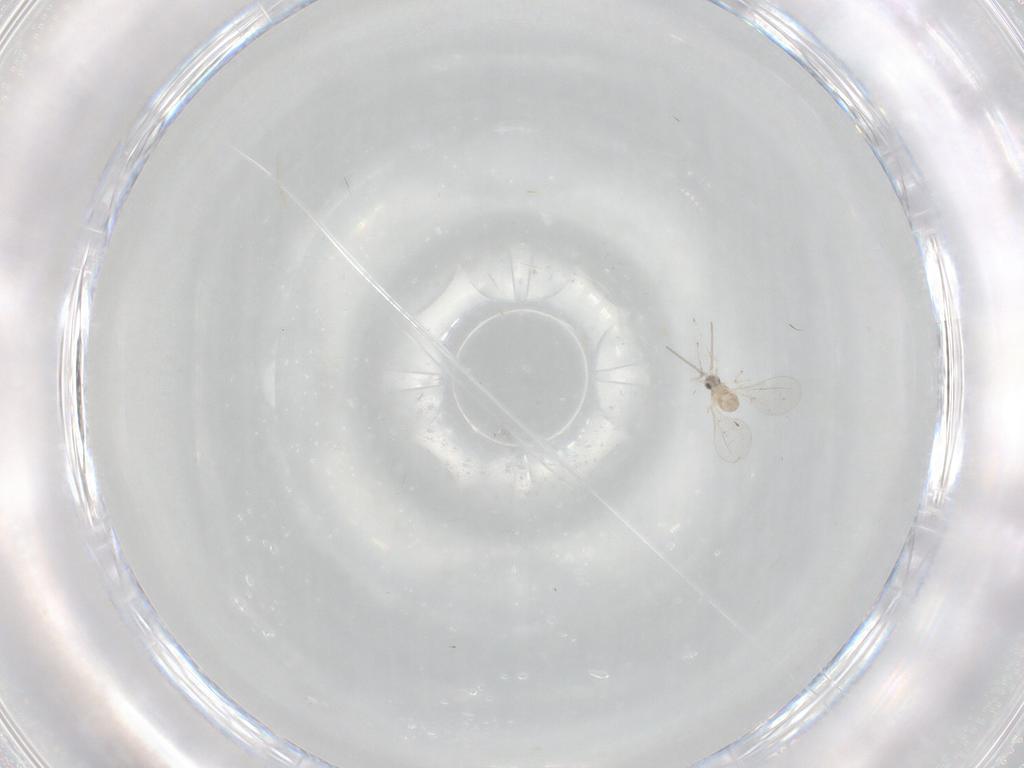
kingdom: Animalia
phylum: Arthropoda
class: Insecta
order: Diptera
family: Dolichopodidae
